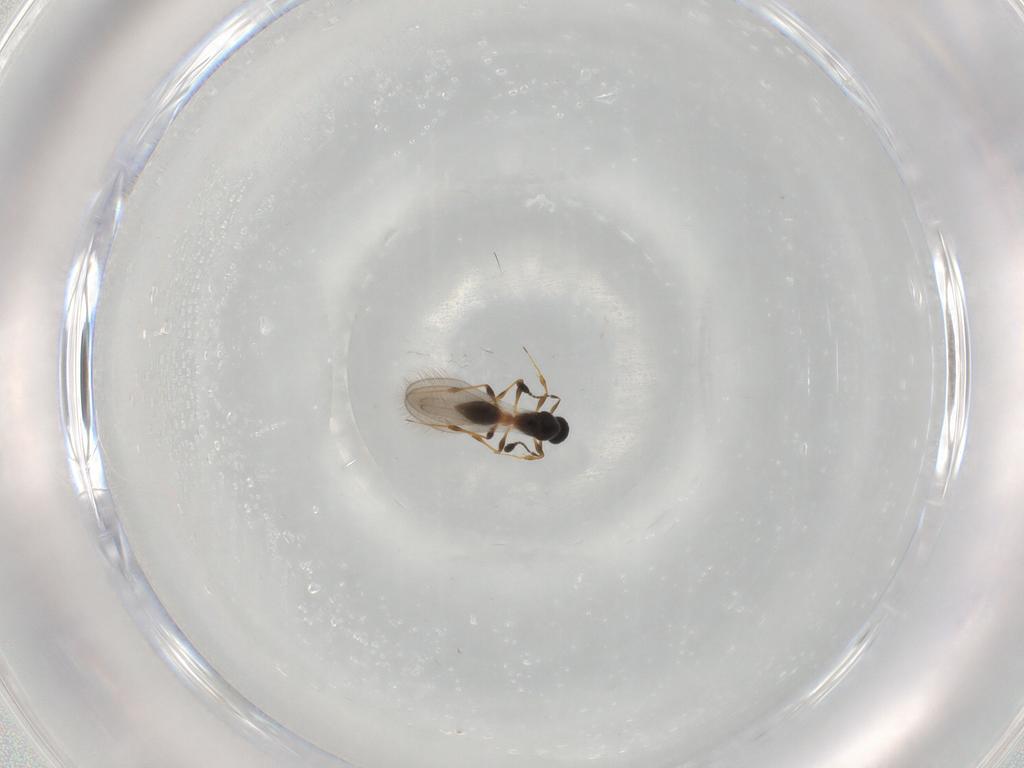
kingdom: Animalia
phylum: Arthropoda
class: Insecta
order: Hymenoptera
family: Platygastridae
